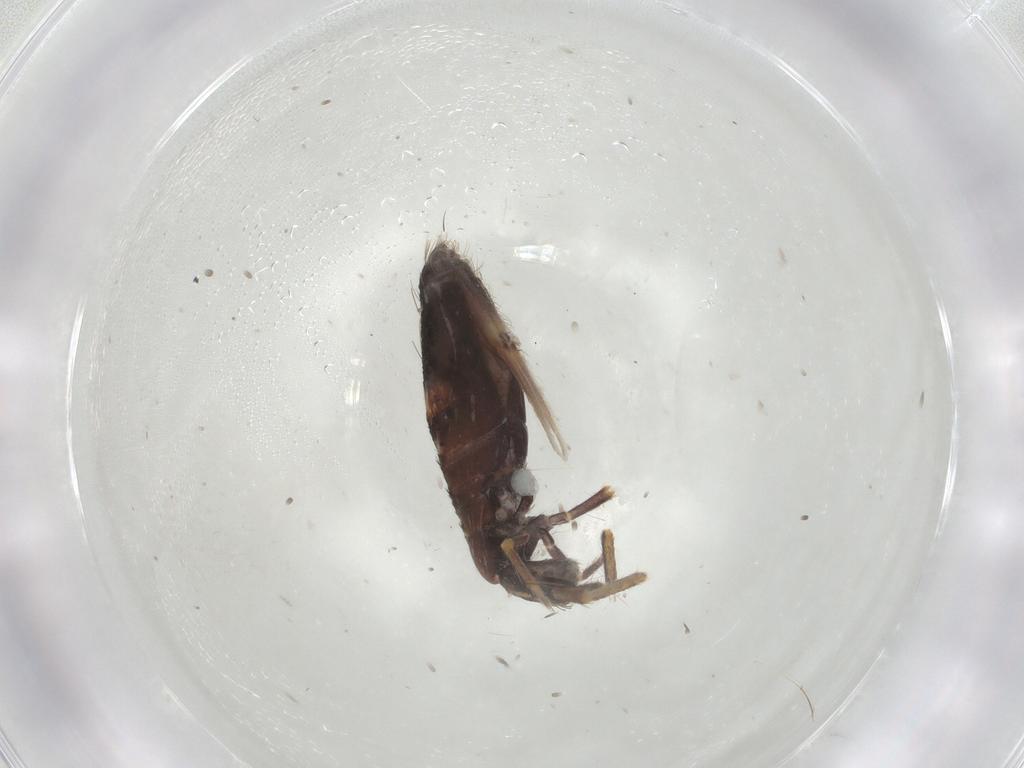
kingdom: Animalia
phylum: Arthropoda
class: Collembola
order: Entomobryomorpha
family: Entomobryidae
